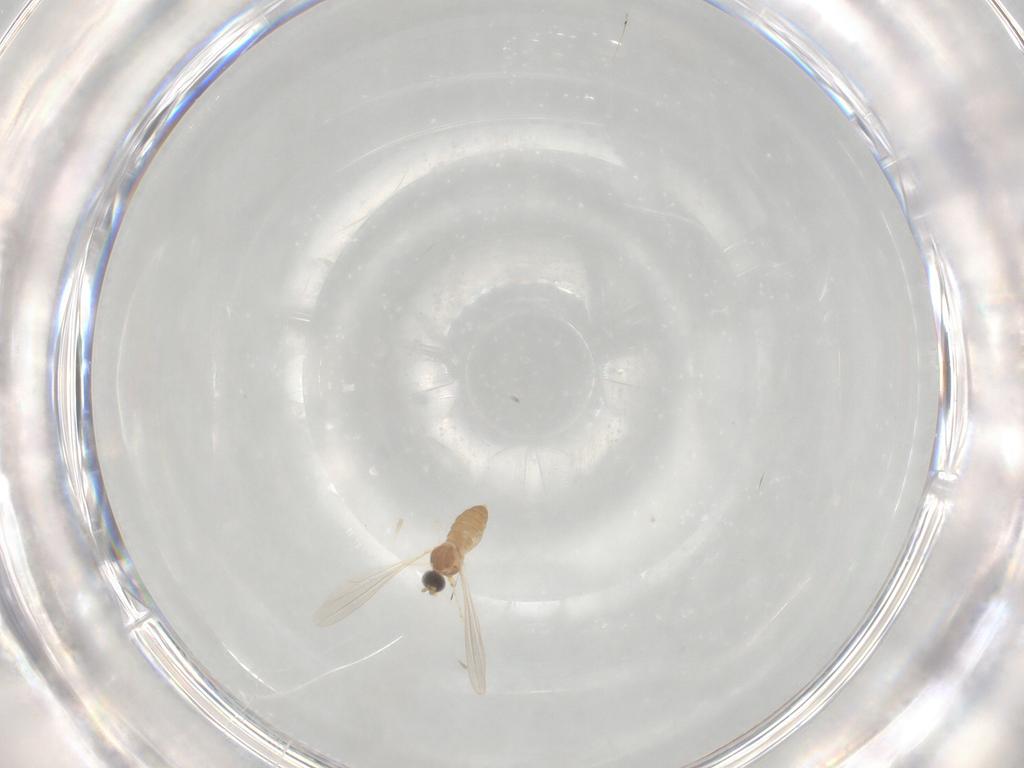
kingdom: Animalia
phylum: Arthropoda
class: Insecta
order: Diptera
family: Cecidomyiidae
